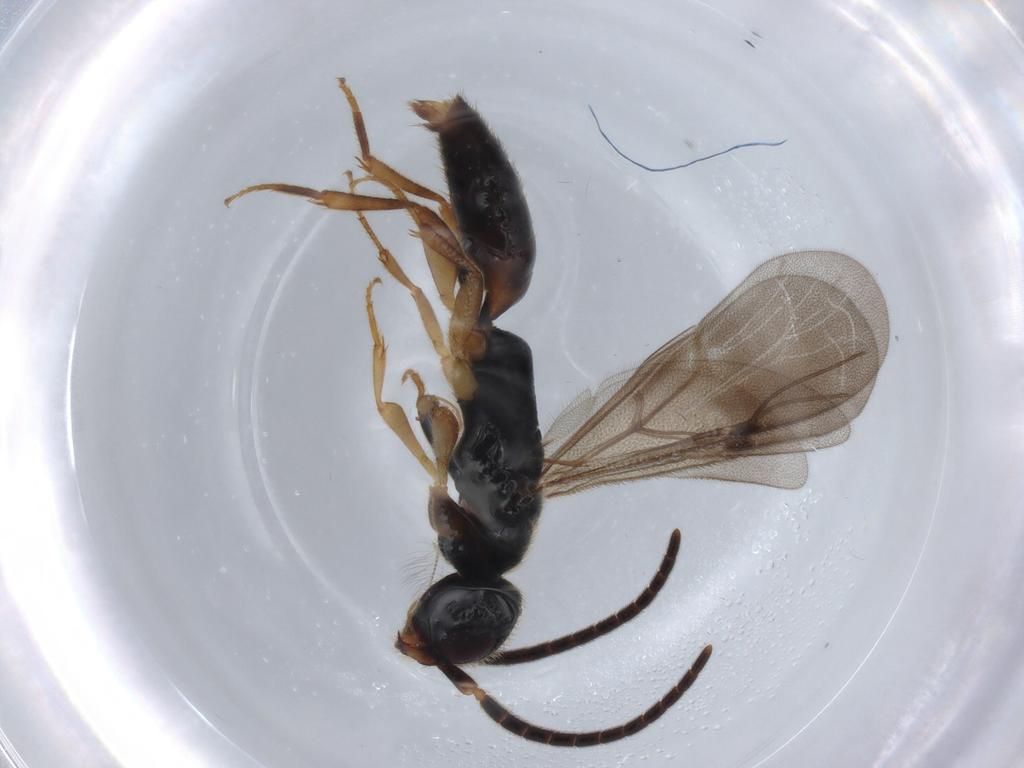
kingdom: Animalia
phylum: Arthropoda
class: Insecta
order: Hymenoptera
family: Bethylidae
